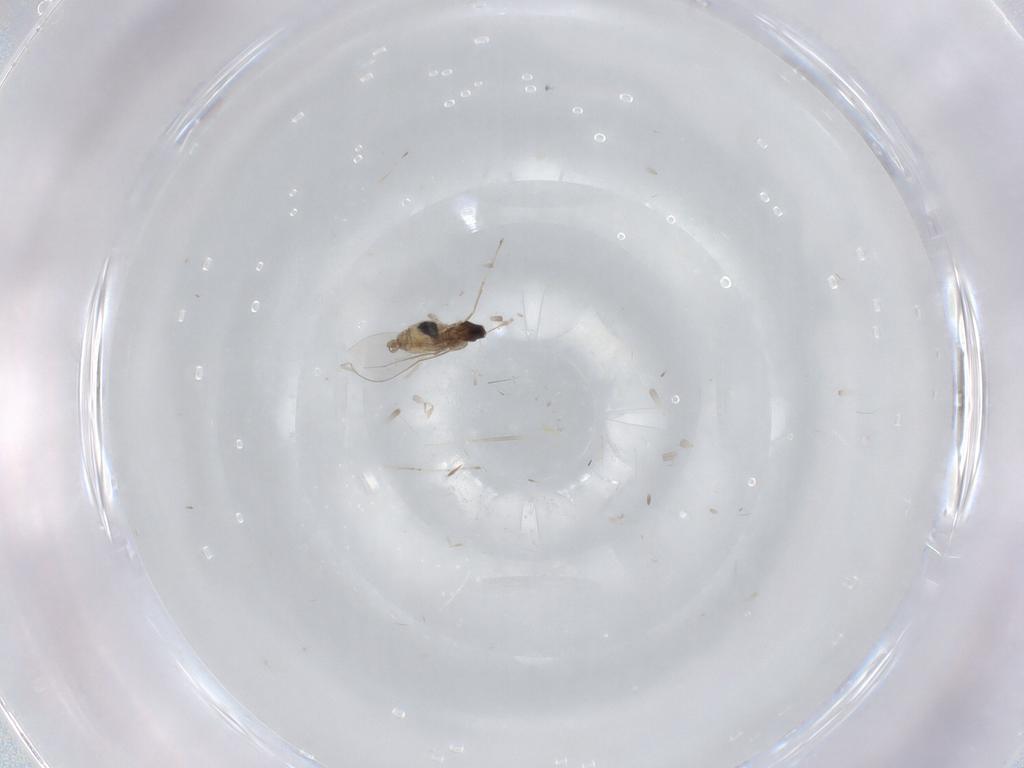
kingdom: Animalia
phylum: Arthropoda
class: Insecta
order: Diptera
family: Cecidomyiidae
